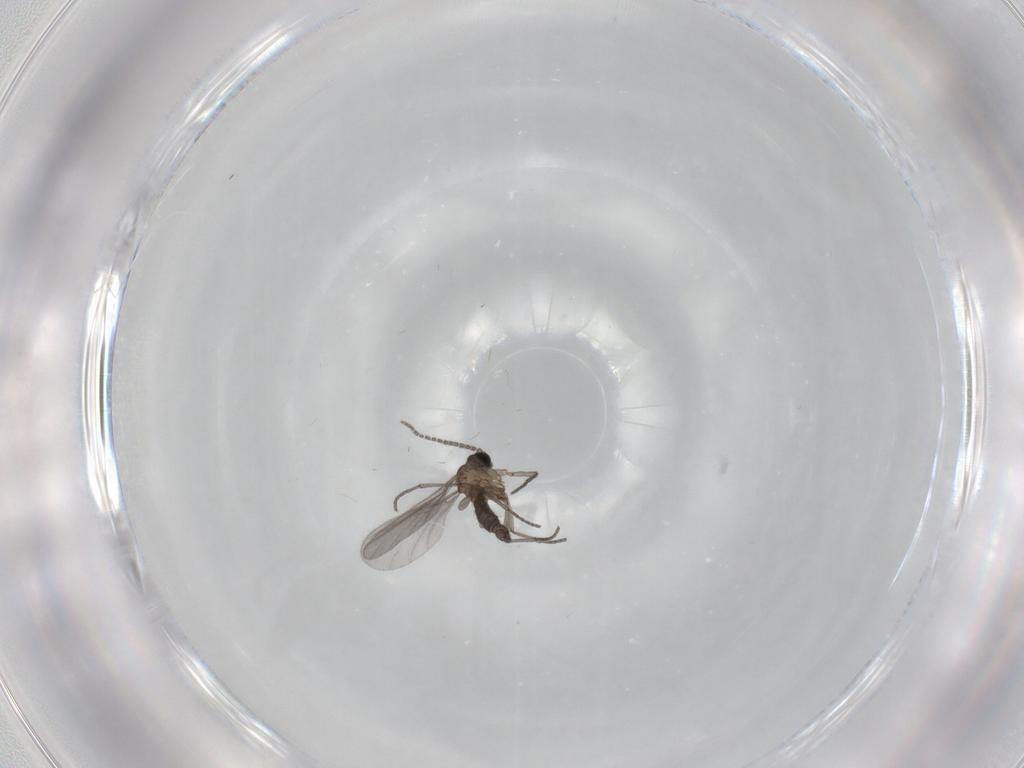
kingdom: Animalia
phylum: Arthropoda
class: Insecta
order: Diptera
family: Sciaridae
